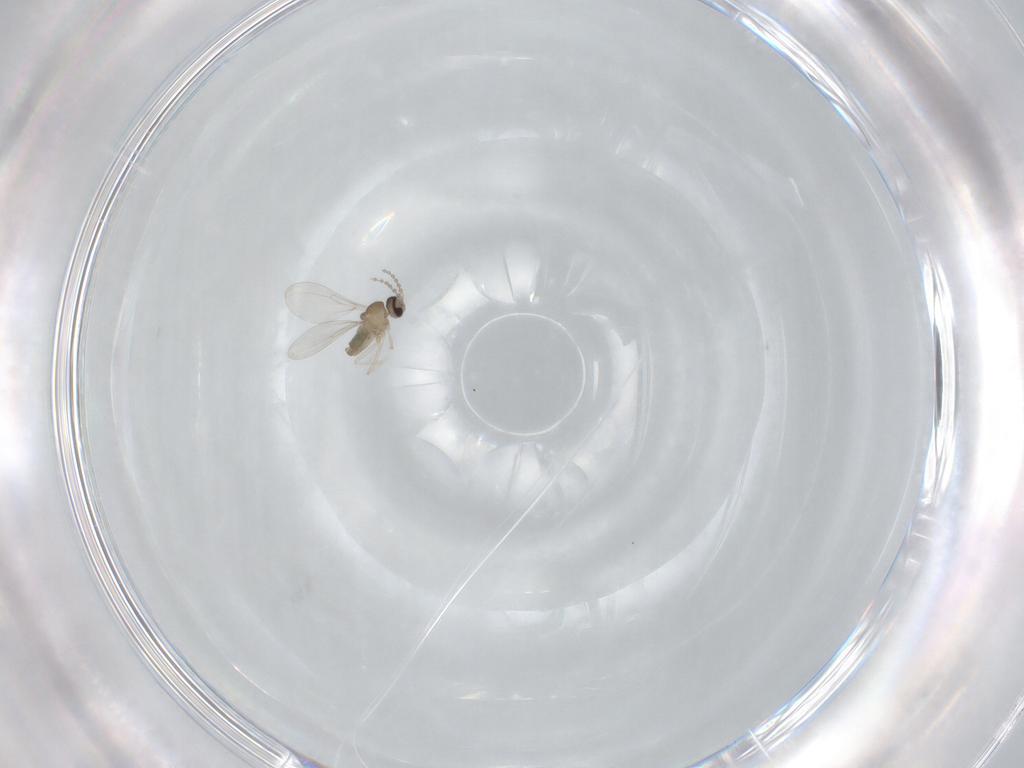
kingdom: Animalia
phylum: Arthropoda
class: Insecta
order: Diptera
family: Cecidomyiidae
